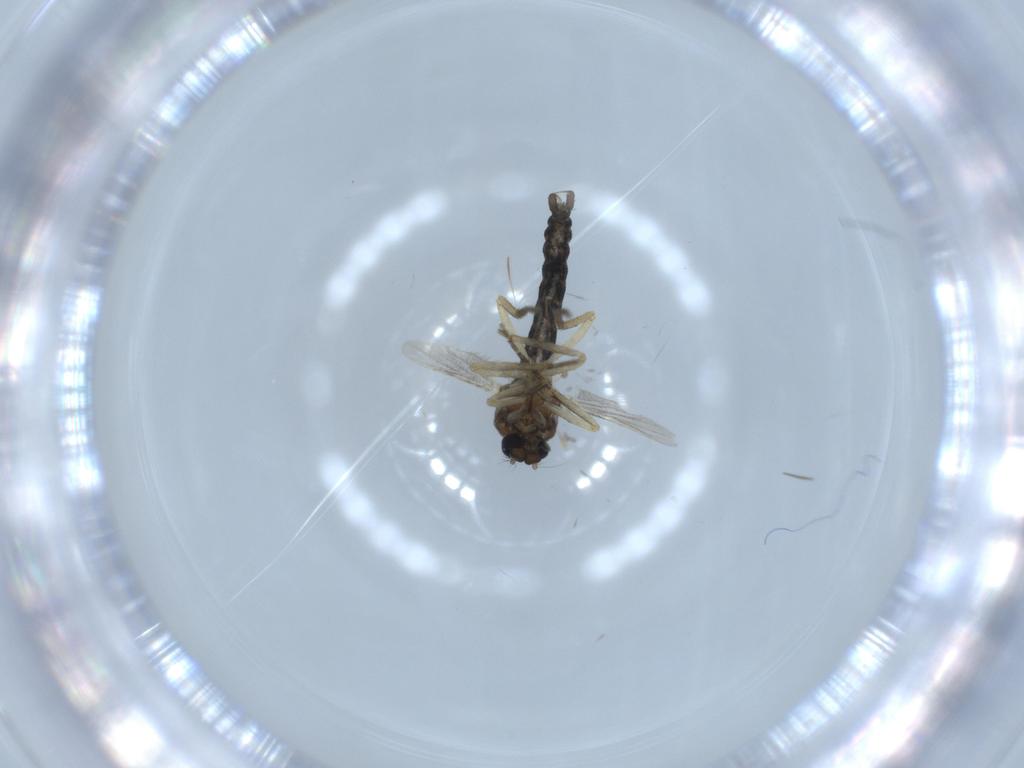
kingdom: Animalia
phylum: Arthropoda
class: Insecta
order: Diptera
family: Ceratopogonidae
